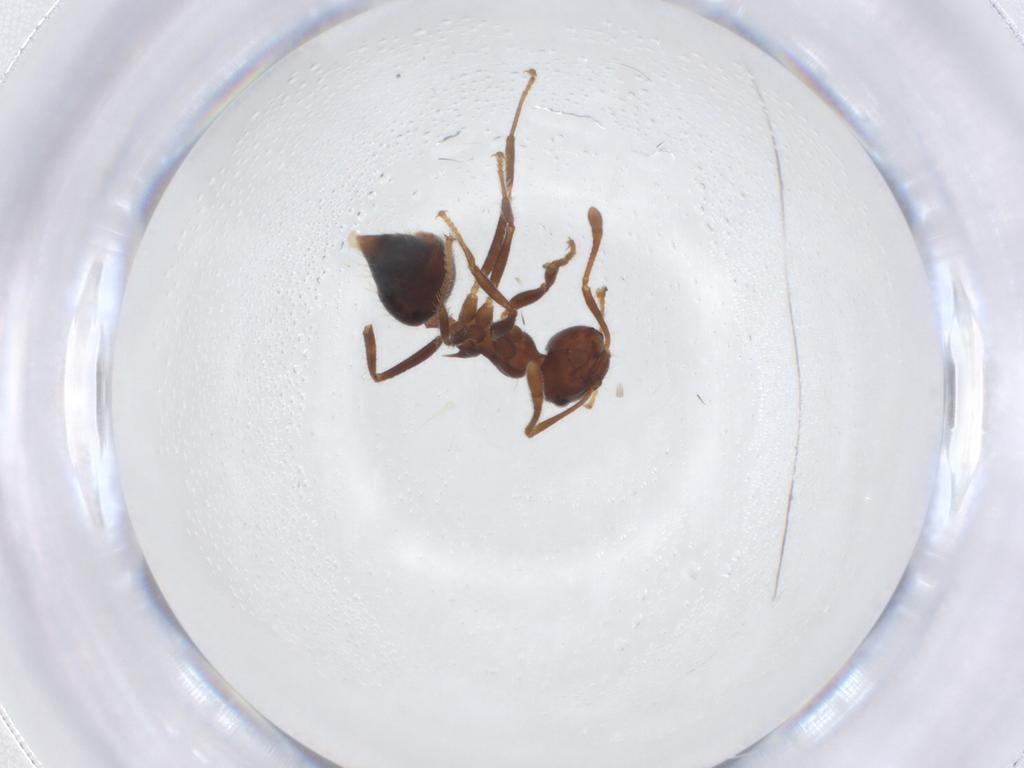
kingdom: Animalia
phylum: Arthropoda
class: Insecta
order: Hymenoptera
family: Formicidae
